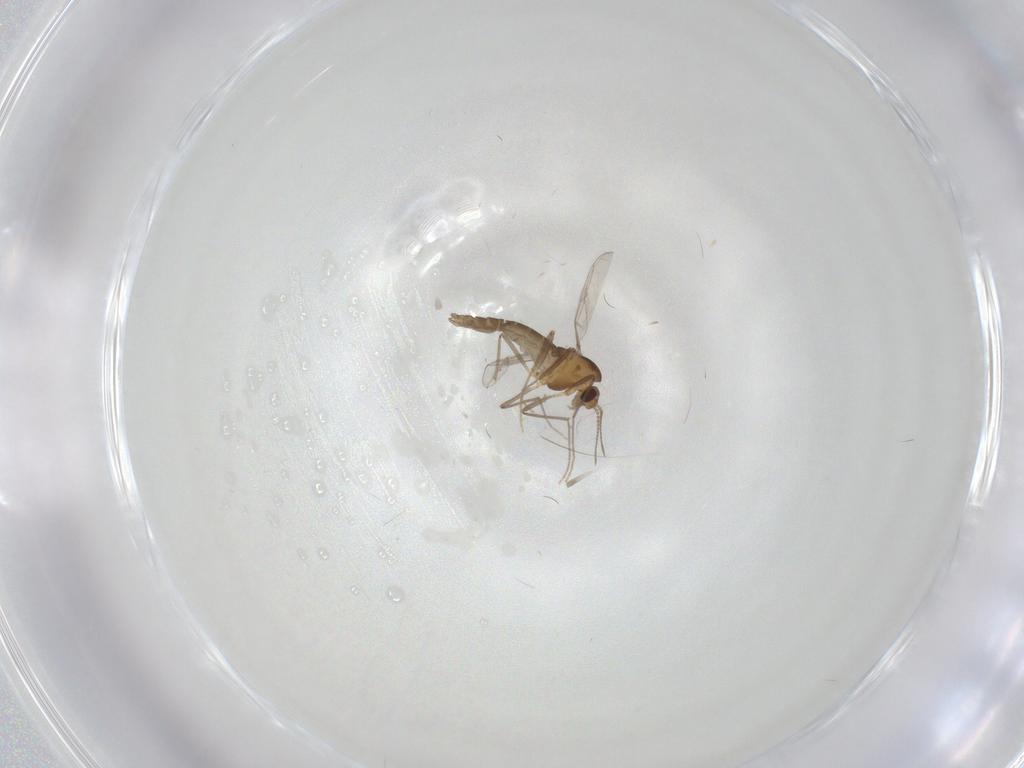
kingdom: Animalia
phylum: Arthropoda
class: Insecta
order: Diptera
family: Chironomidae
